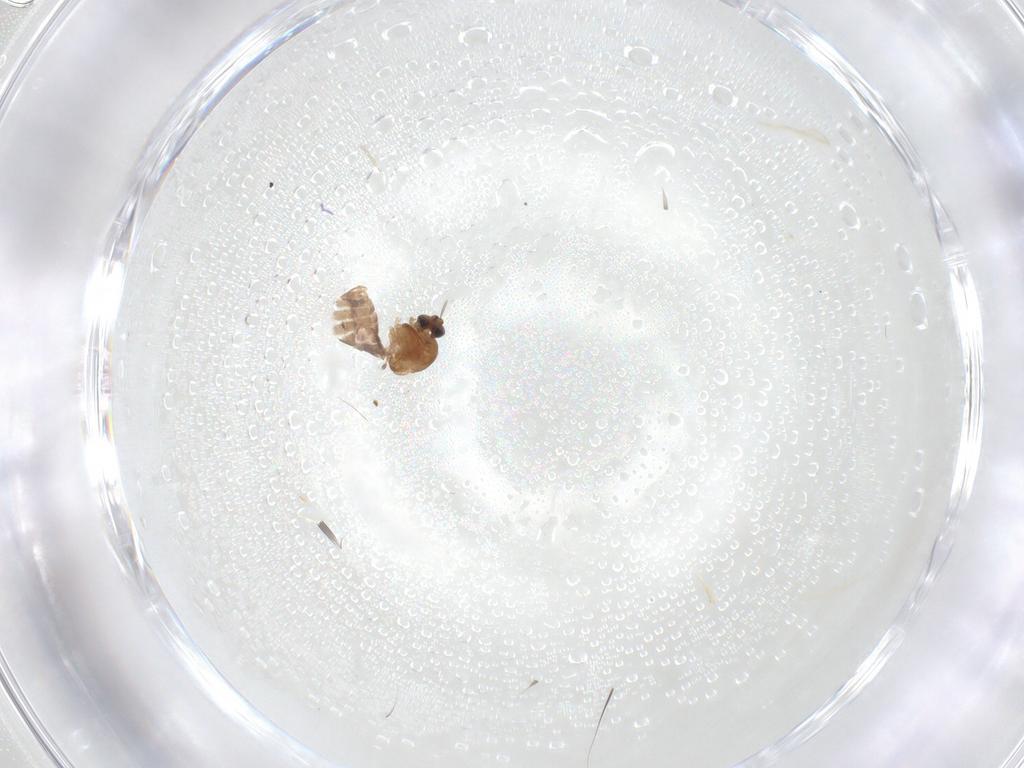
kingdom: Animalia
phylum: Arthropoda
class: Insecta
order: Diptera
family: Ceratopogonidae
